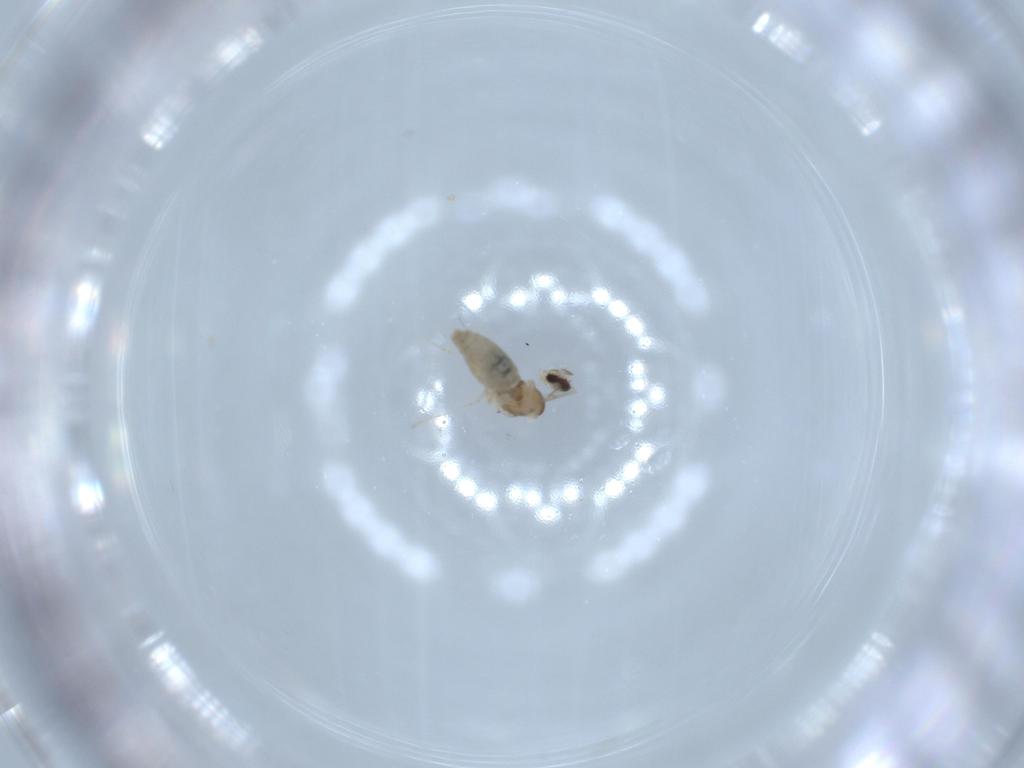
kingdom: Animalia
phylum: Arthropoda
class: Insecta
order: Diptera
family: Cecidomyiidae
